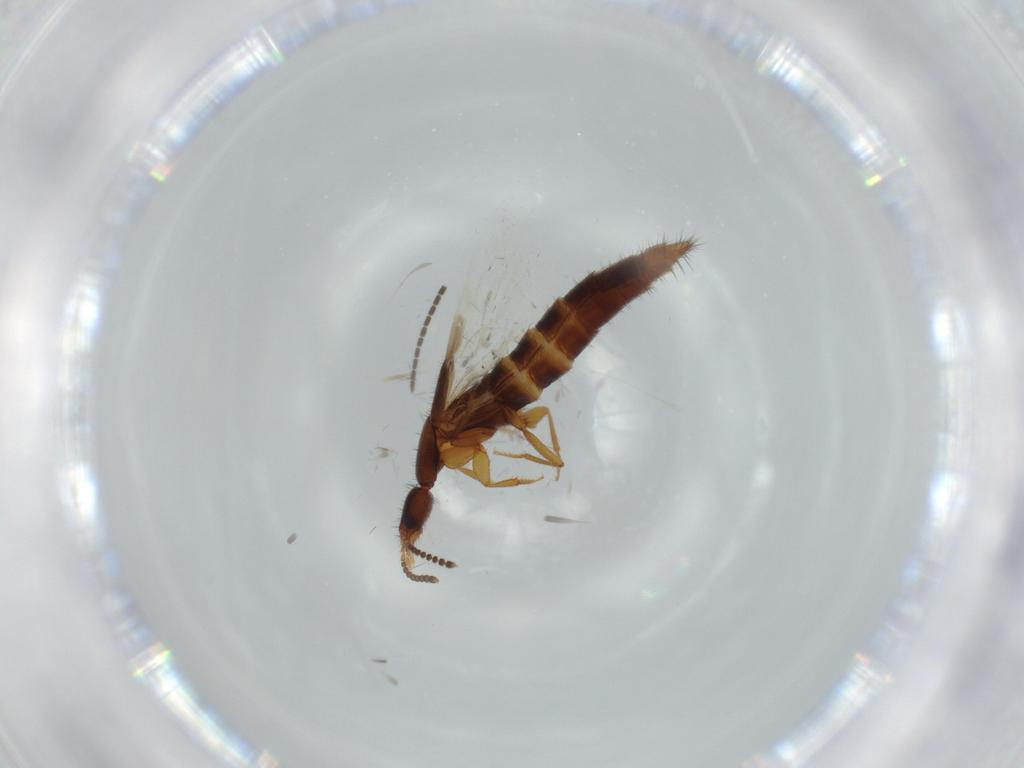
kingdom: Animalia
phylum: Arthropoda
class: Insecta
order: Coleoptera
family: Staphylinidae
